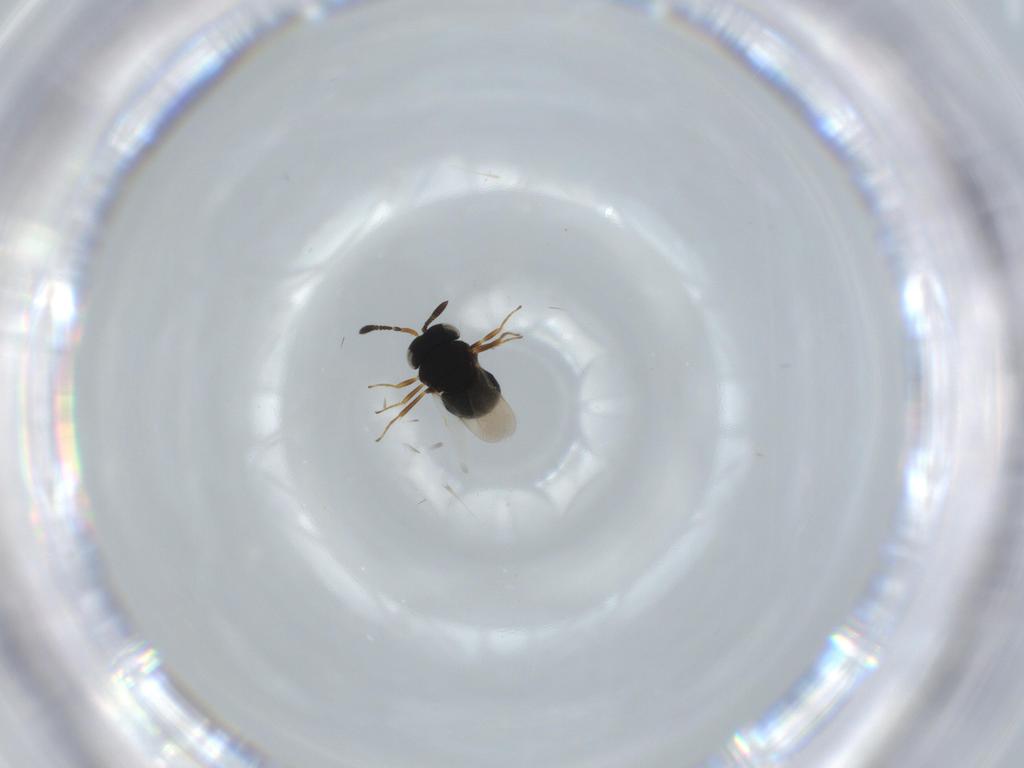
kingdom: Animalia
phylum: Arthropoda
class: Insecta
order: Hymenoptera
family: Scelionidae
